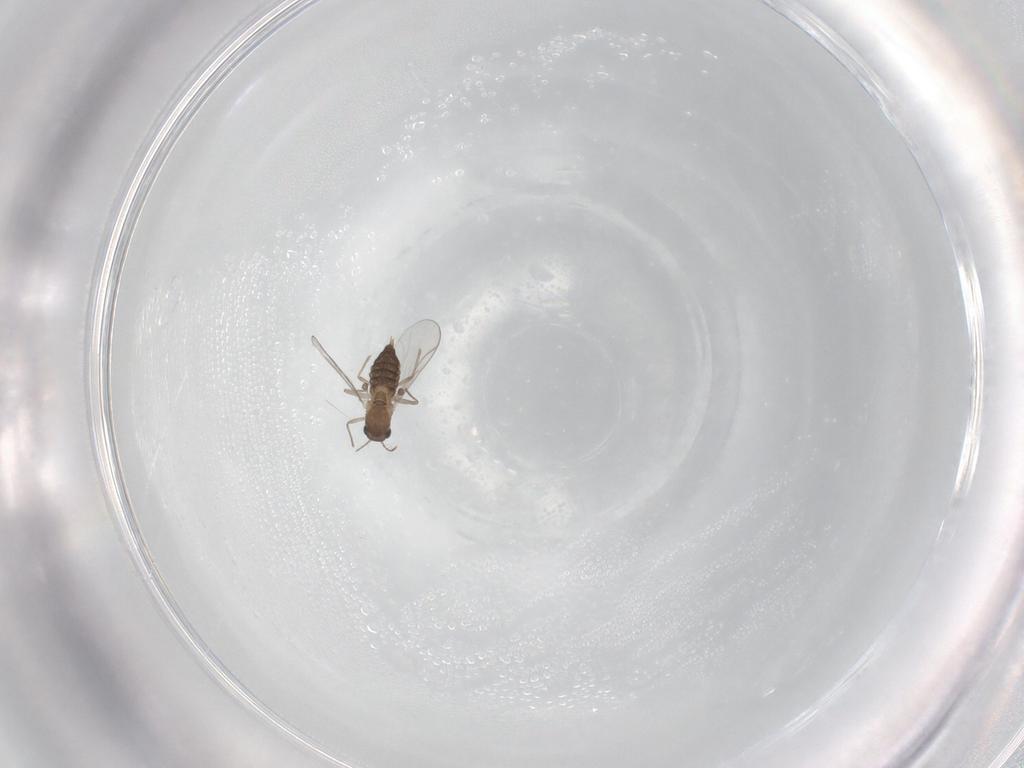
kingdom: Animalia
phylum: Arthropoda
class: Insecta
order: Diptera
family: Chironomidae
